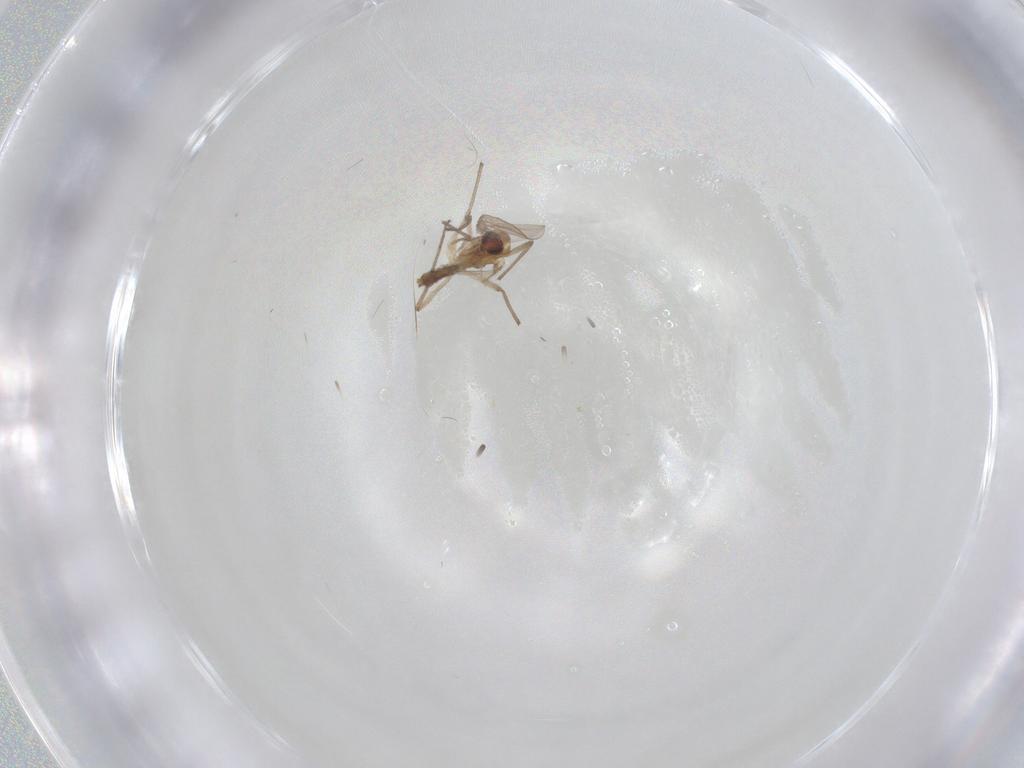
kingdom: Animalia
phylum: Arthropoda
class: Insecta
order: Diptera
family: Chironomidae
